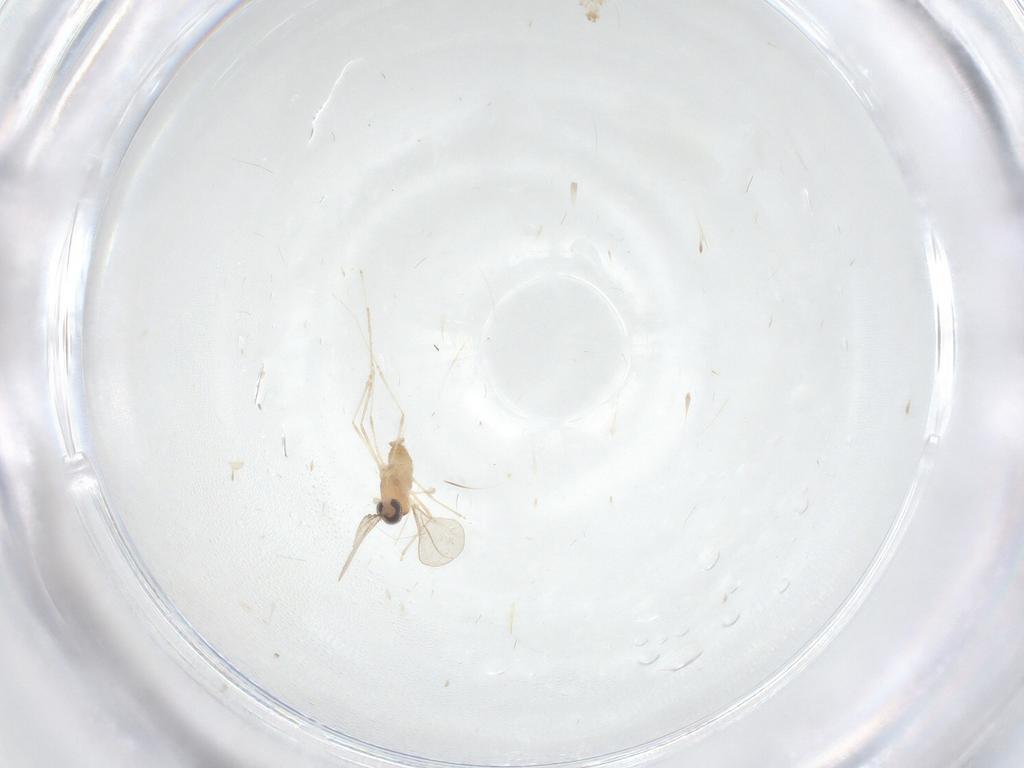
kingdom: Animalia
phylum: Arthropoda
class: Insecta
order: Diptera
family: Cecidomyiidae
